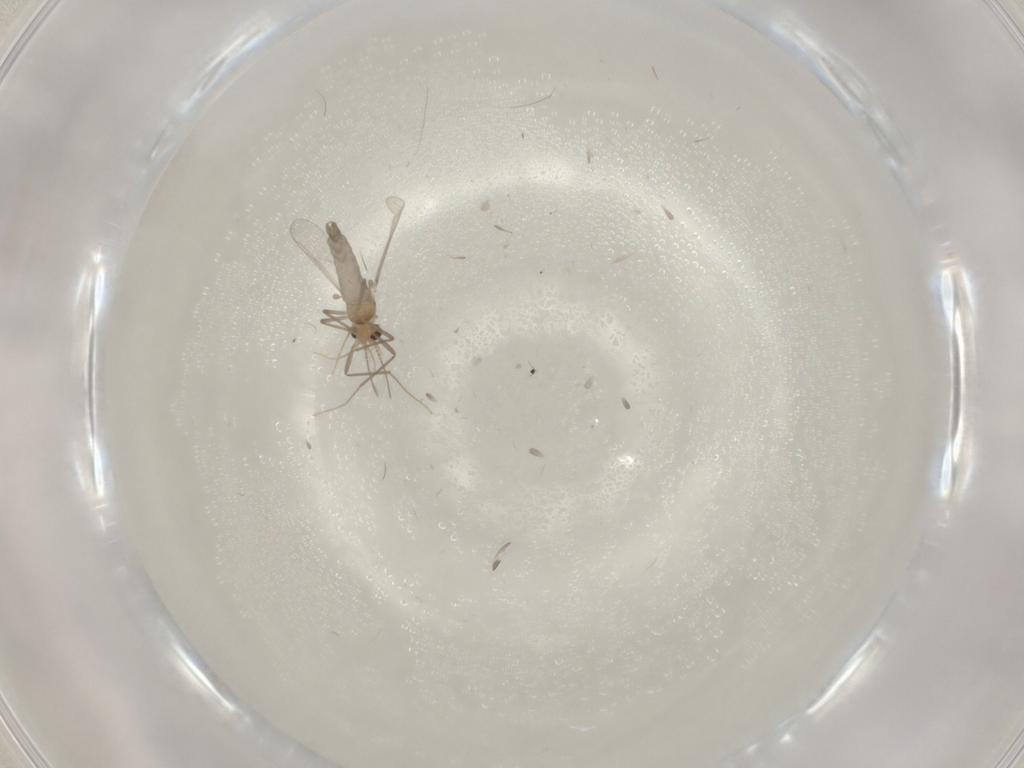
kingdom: Animalia
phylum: Arthropoda
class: Insecta
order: Diptera
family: Chironomidae
